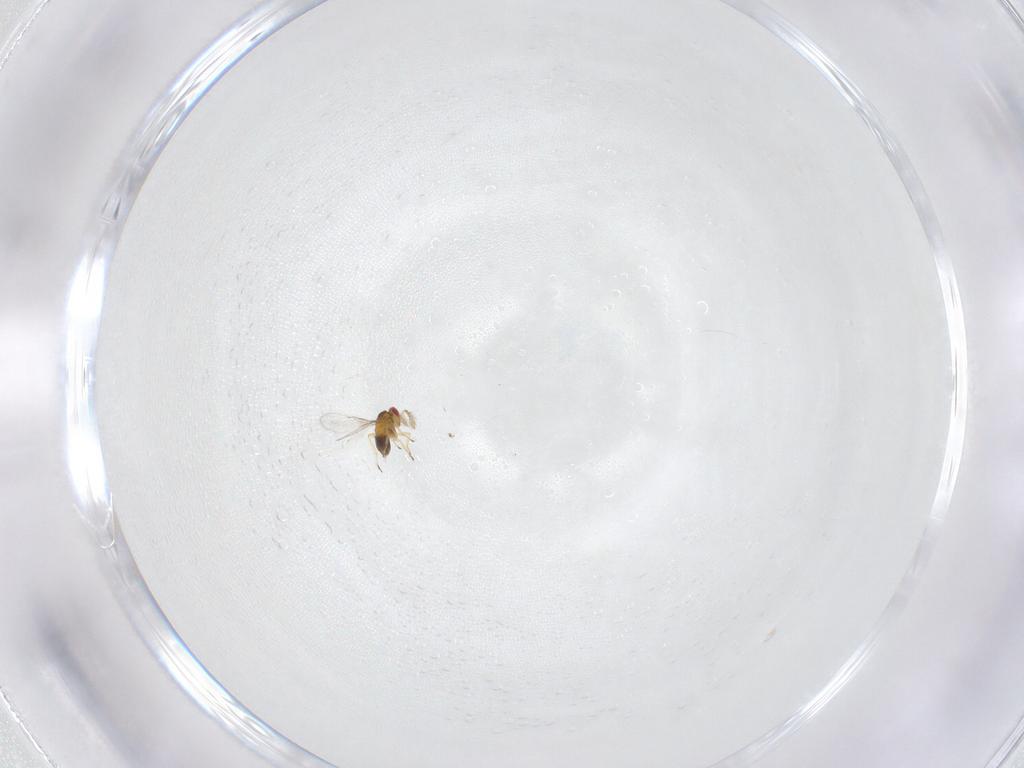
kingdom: Animalia
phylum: Arthropoda
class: Insecta
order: Hymenoptera
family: Trichogrammatidae
